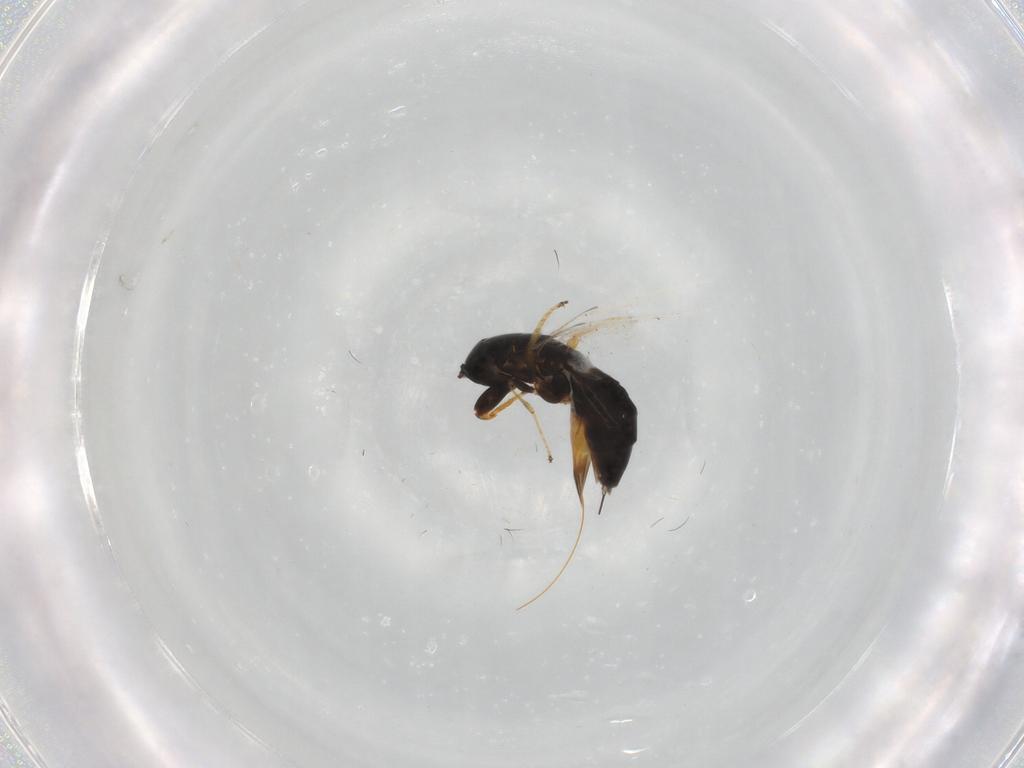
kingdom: Animalia
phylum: Arthropoda
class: Insecta
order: Hymenoptera
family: Agaonidae
